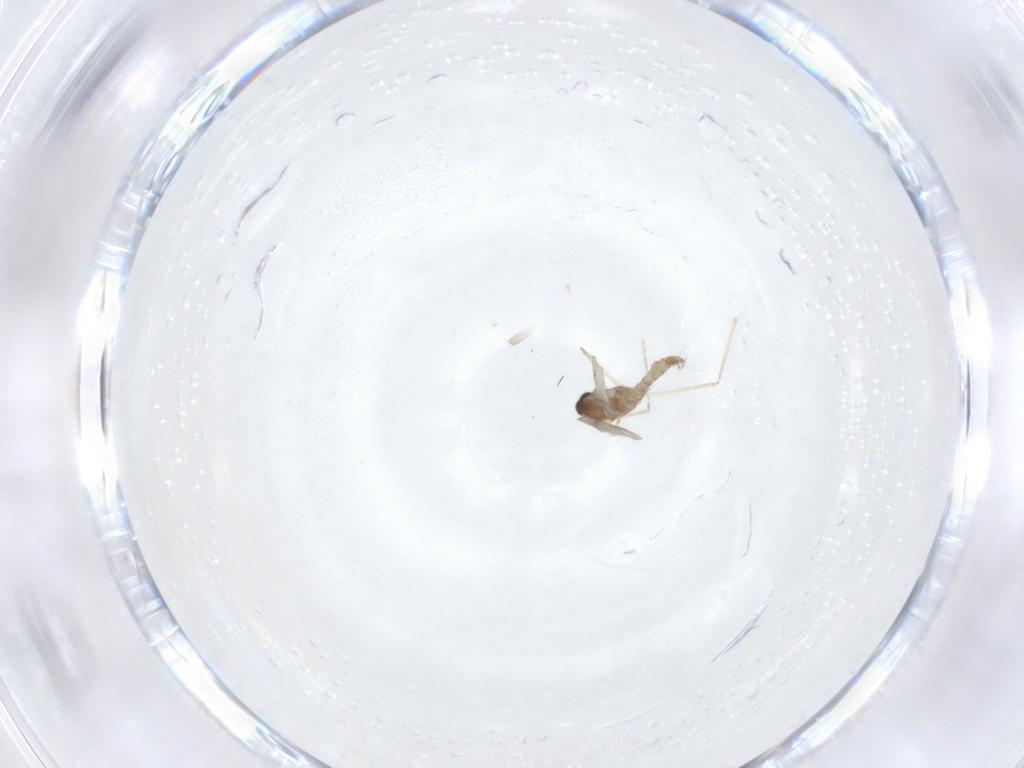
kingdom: Animalia
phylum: Arthropoda
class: Insecta
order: Diptera
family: Cecidomyiidae
